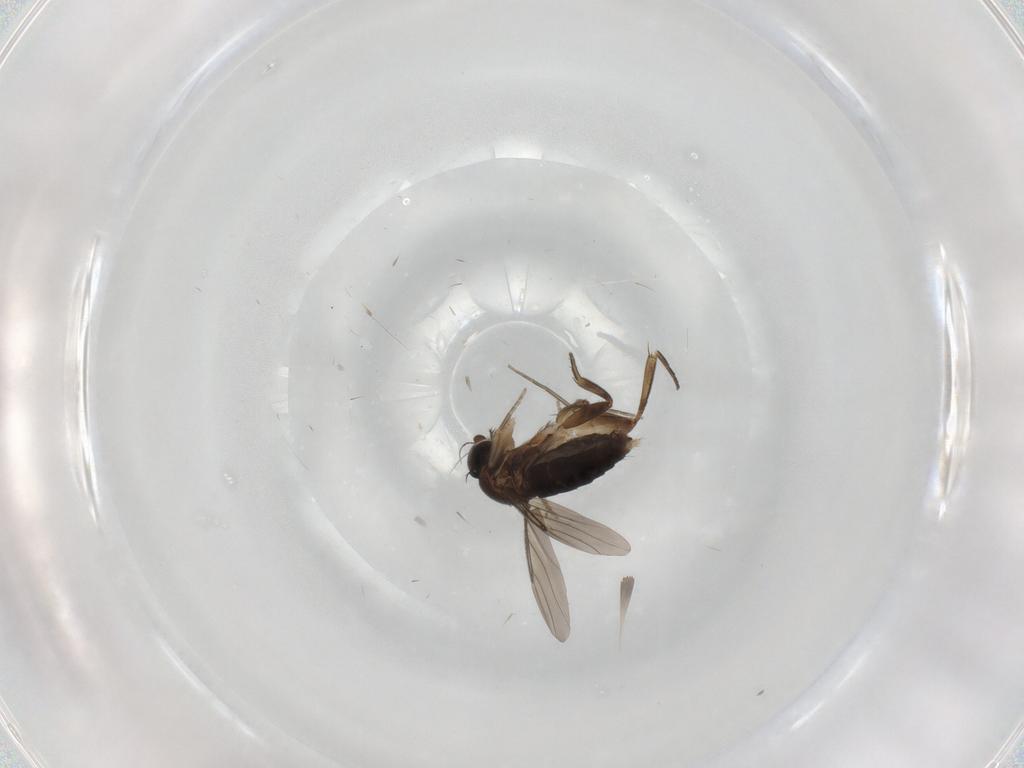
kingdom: Animalia
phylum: Arthropoda
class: Insecta
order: Diptera
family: Phoridae
